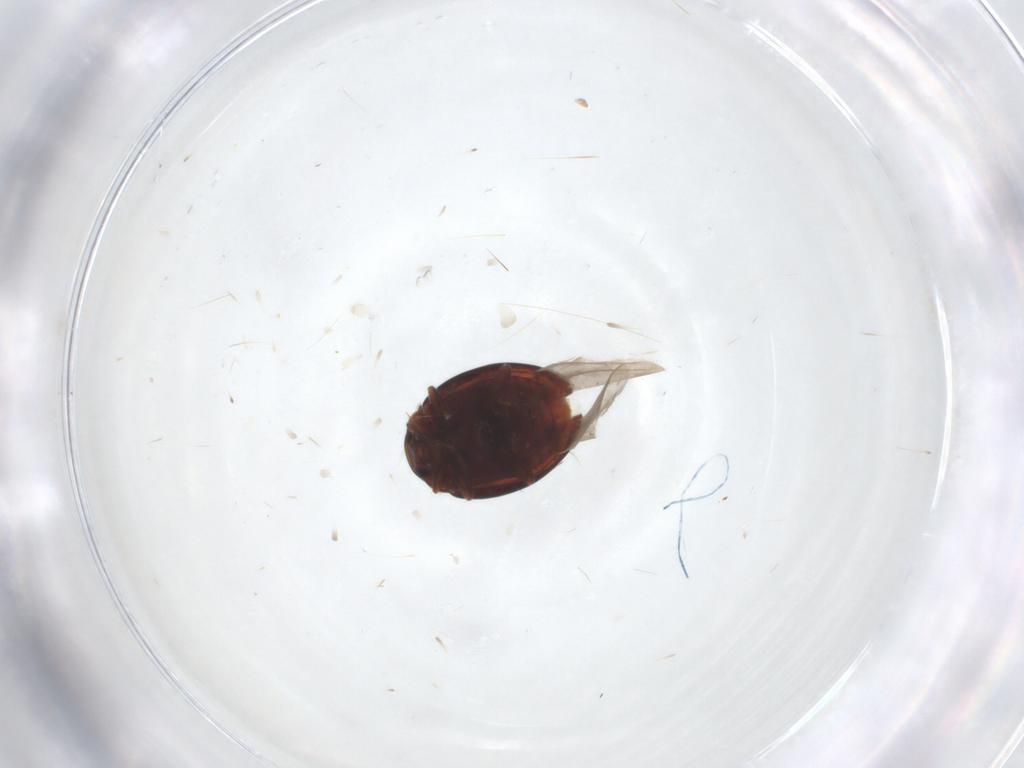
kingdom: Animalia
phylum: Arthropoda
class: Insecta
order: Coleoptera
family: Coccinellidae
